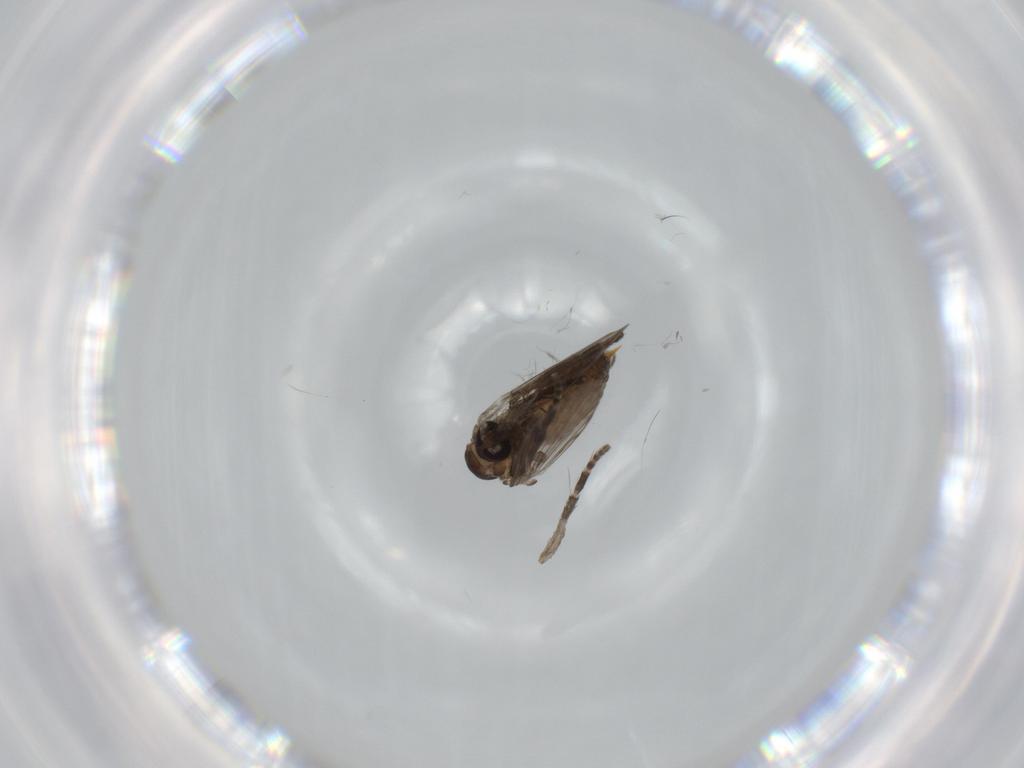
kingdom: Animalia
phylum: Arthropoda
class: Insecta
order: Diptera
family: Psychodidae
